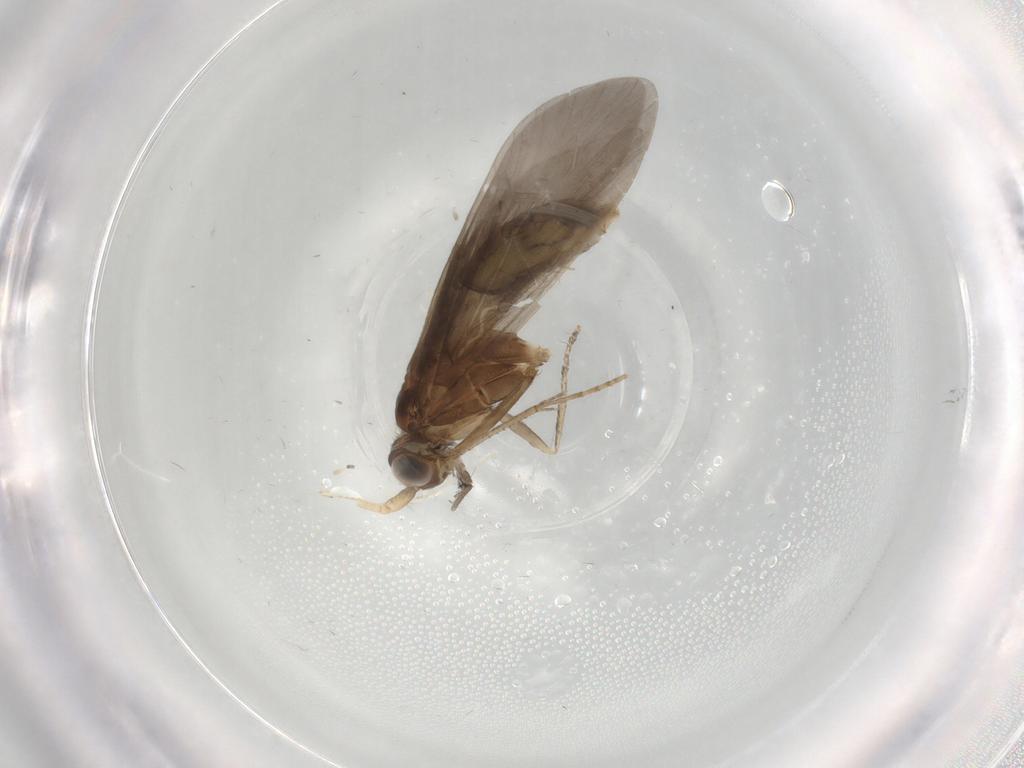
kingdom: Animalia
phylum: Arthropoda
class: Insecta
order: Trichoptera
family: Helicopsychidae
